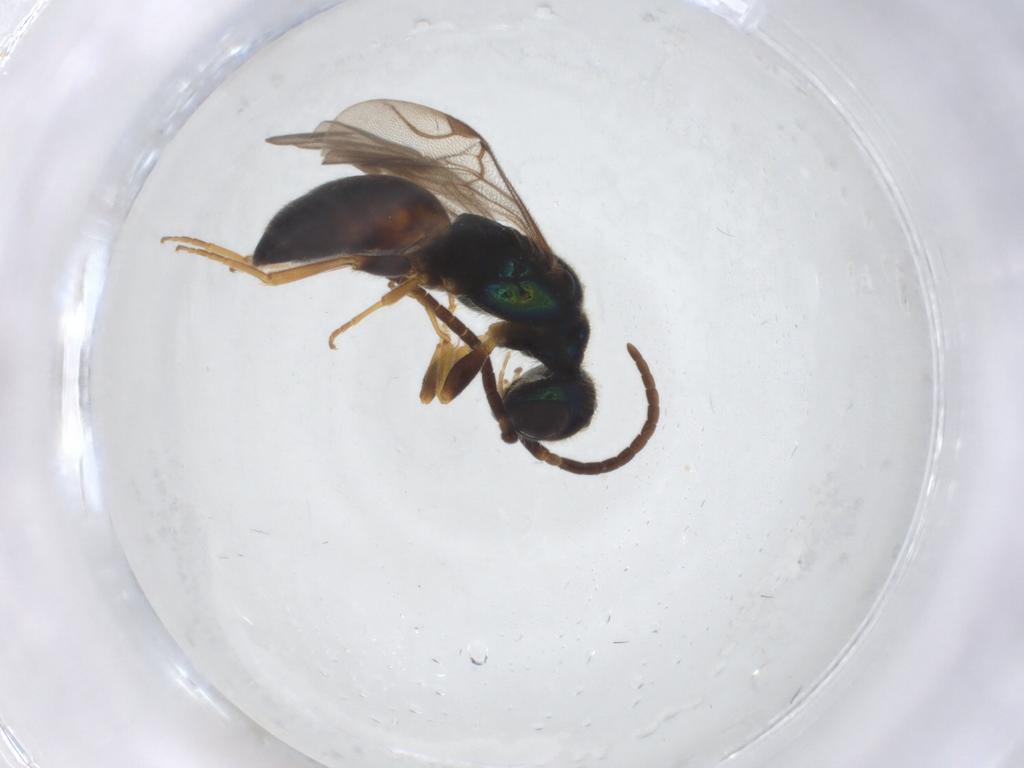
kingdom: Animalia
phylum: Arthropoda
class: Insecta
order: Hymenoptera
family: Chrysididae
